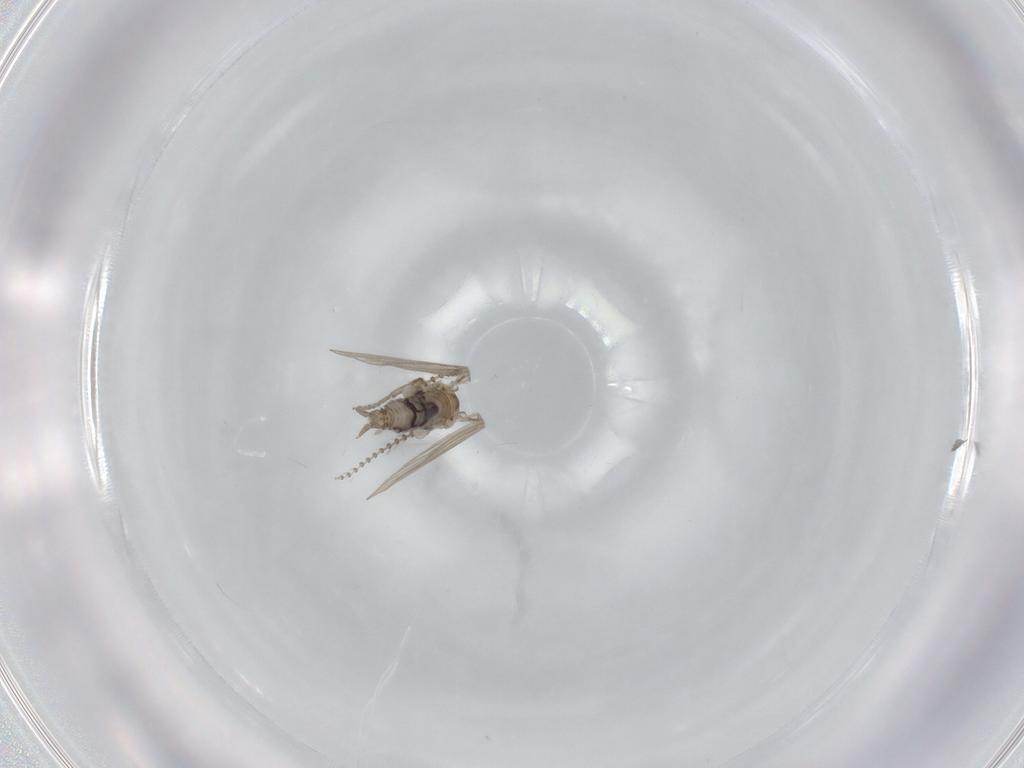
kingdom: Animalia
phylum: Arthropoda
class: Insecta
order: Diptera
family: Psychodidae
